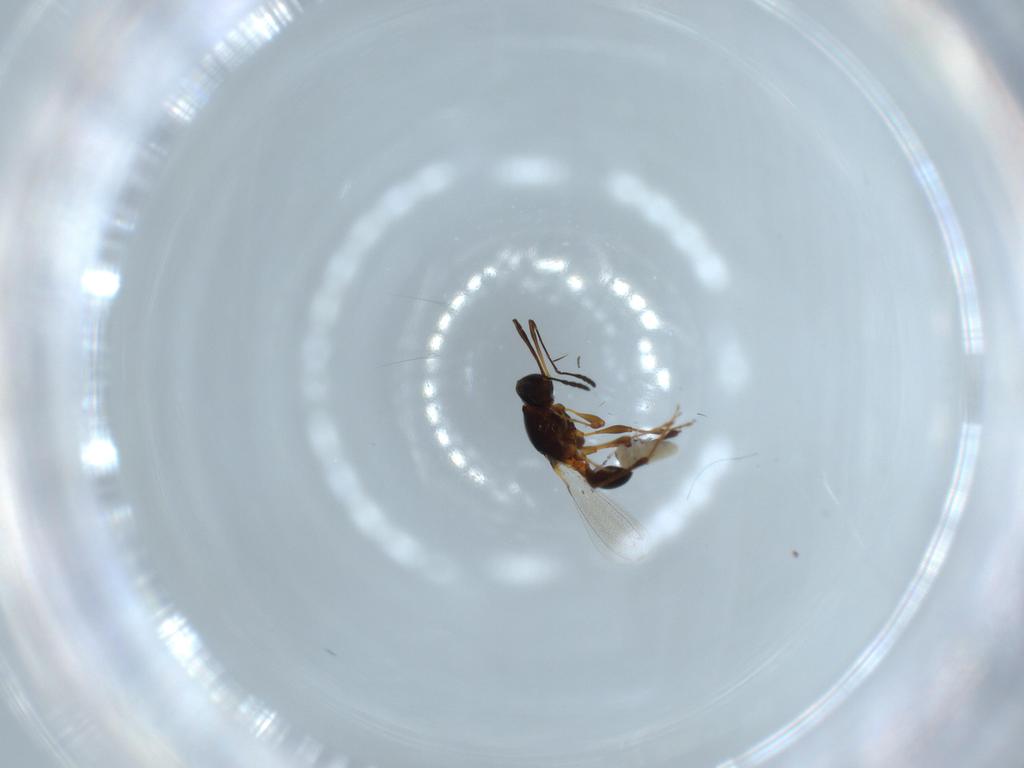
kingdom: Animalia
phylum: Arthropoda
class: Insecta
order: Hymenoptera
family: Platygastridae
